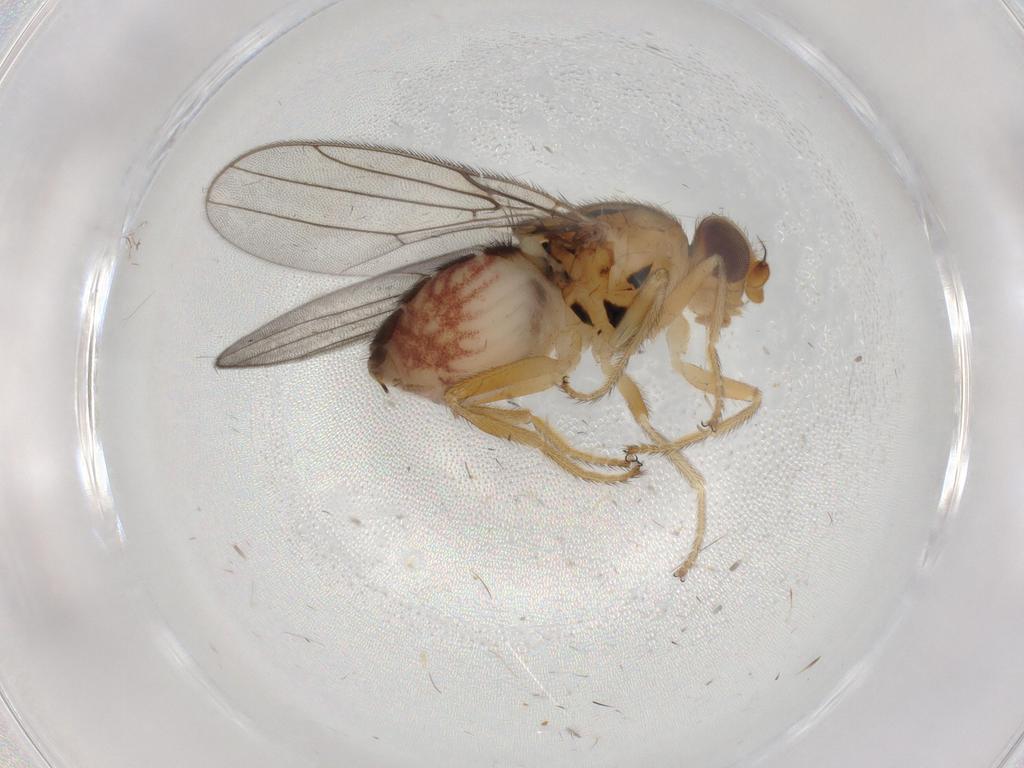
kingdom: Animalia
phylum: Arthropoda
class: Insecta
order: Diptera
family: Chloropidae
